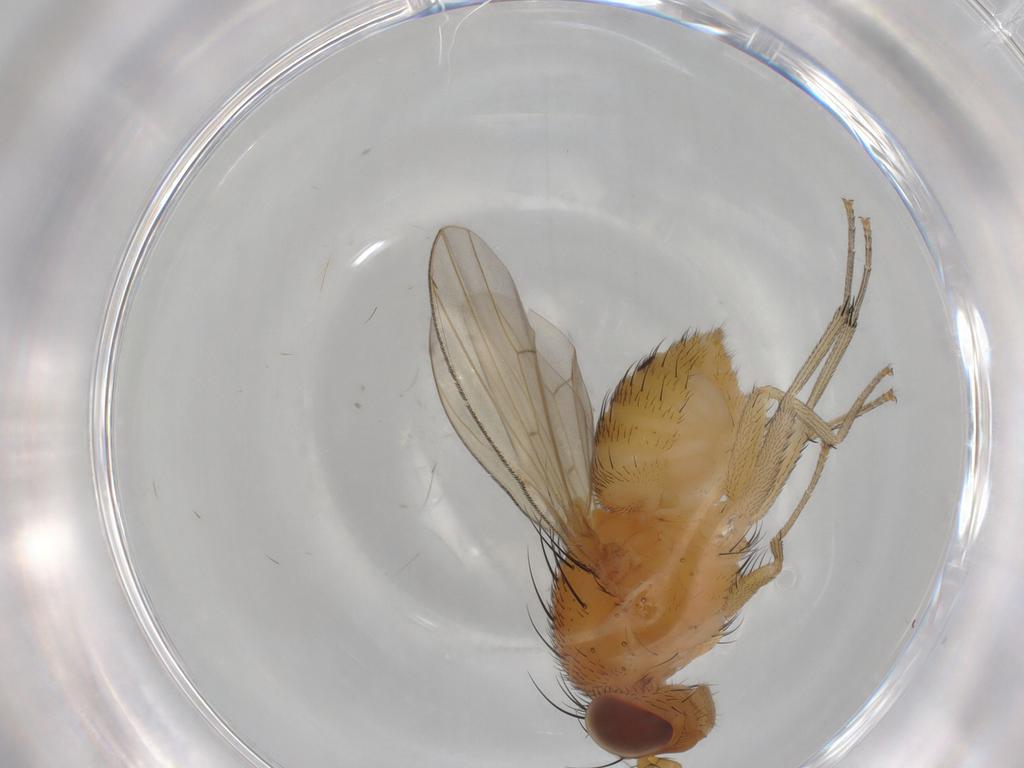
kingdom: Animalia
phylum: Arthropoda
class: Insecta
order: Diptera
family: Lauxaniidae
